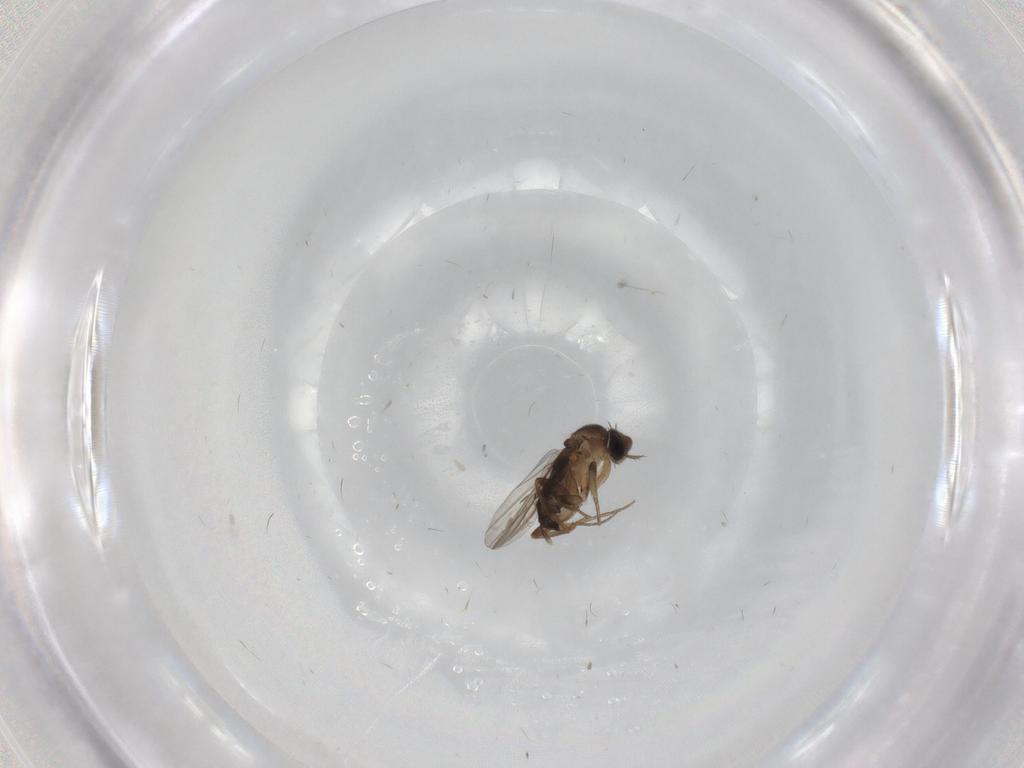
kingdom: Animalia
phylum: Arthropoda
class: Insecta
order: Diptera
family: Phoridae
